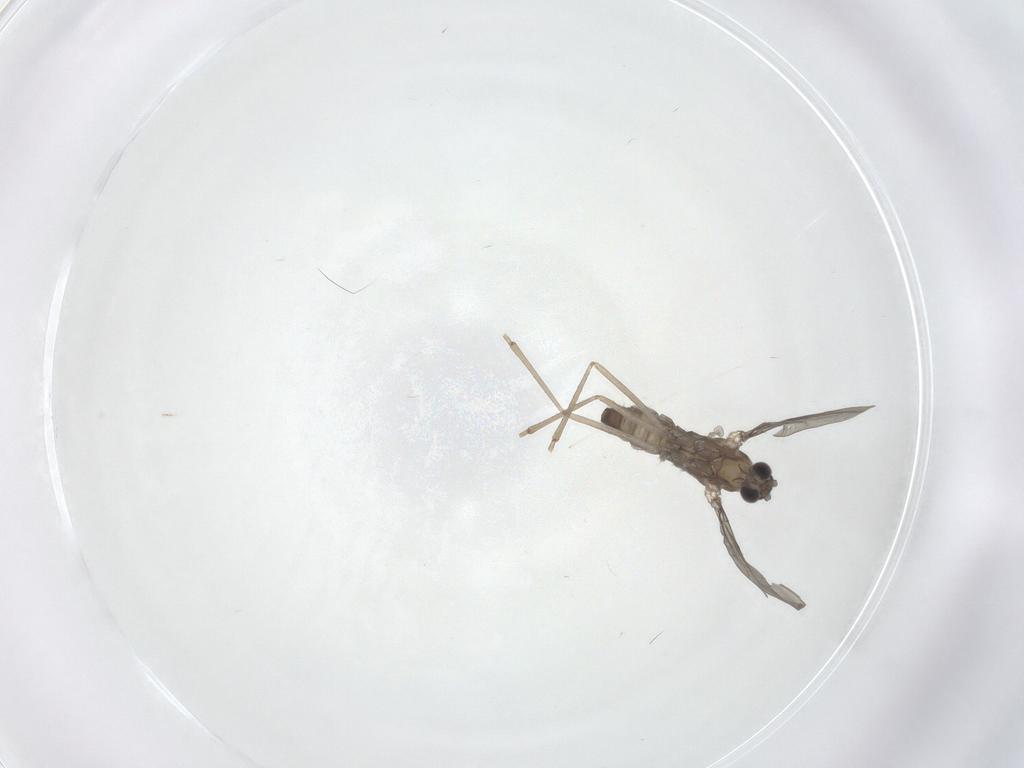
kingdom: Animalia
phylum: Arthropoda
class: Insecta
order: Diptera
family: Cecidomyiidae
